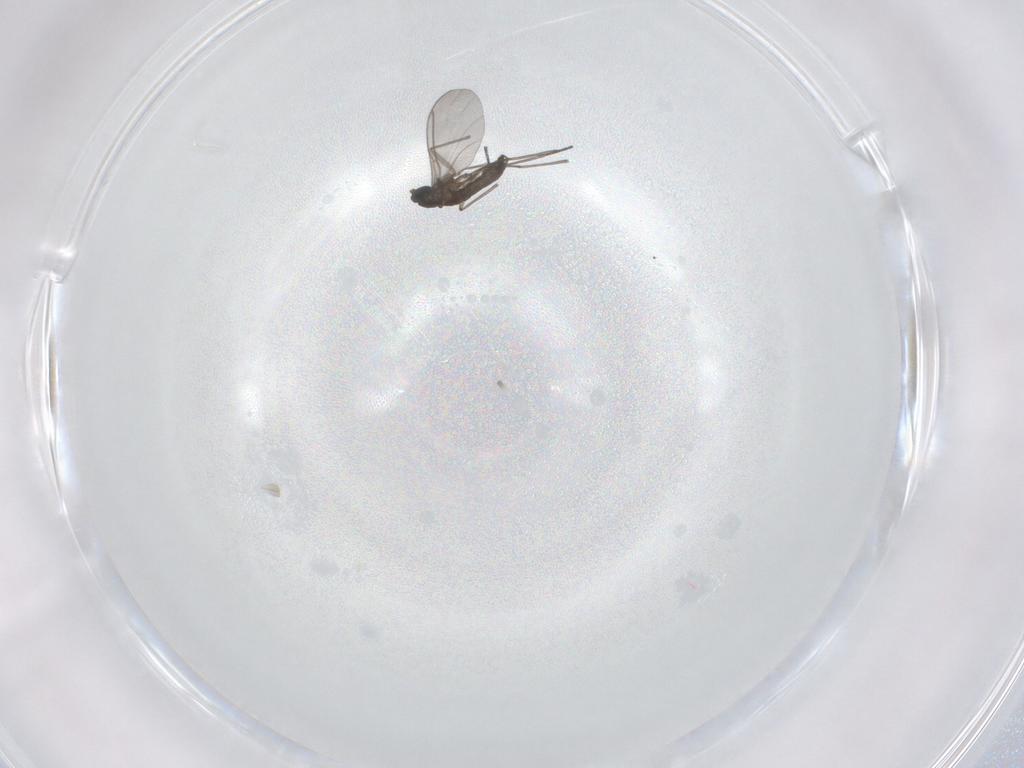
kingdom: Animalia
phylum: Arthropoda
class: Insecta
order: Diptera
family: Sciaridae
